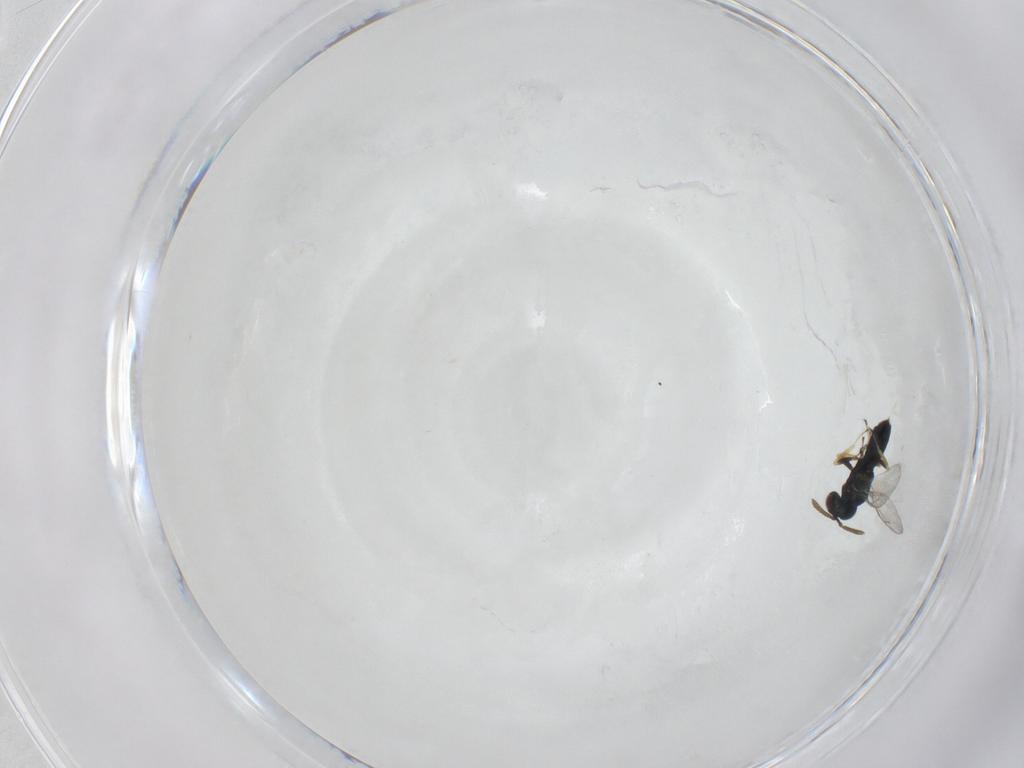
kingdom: Animalia
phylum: Arthropoda
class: Insecta
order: Hymenoptera
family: Pteromalidae
